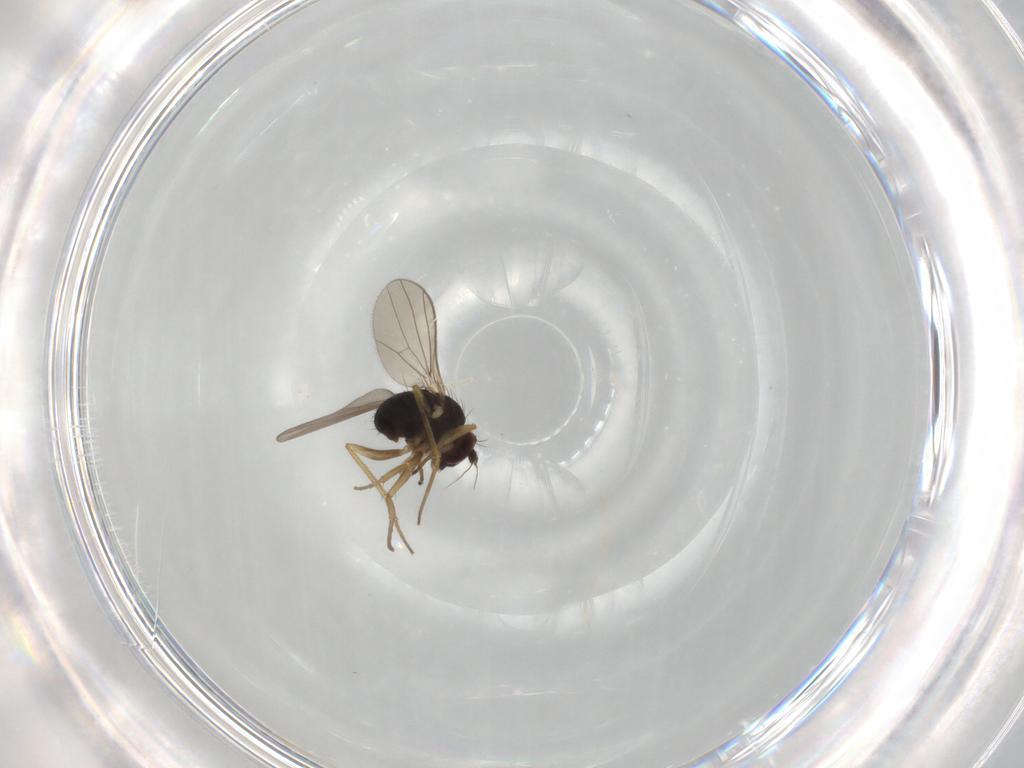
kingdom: Animalia
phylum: Arthropoda
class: Insecta
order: Diptera
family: Dolichopodidae
